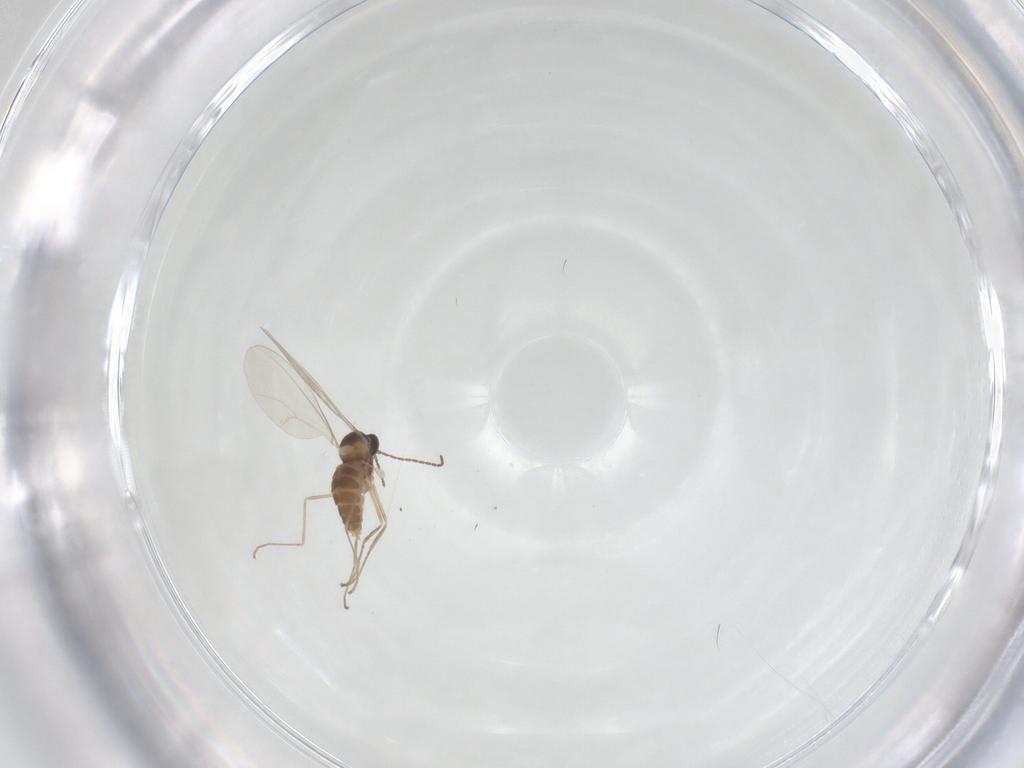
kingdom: Animalia
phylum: Arthropoda
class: Insecta
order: Diptera
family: Cecidomyiidae
